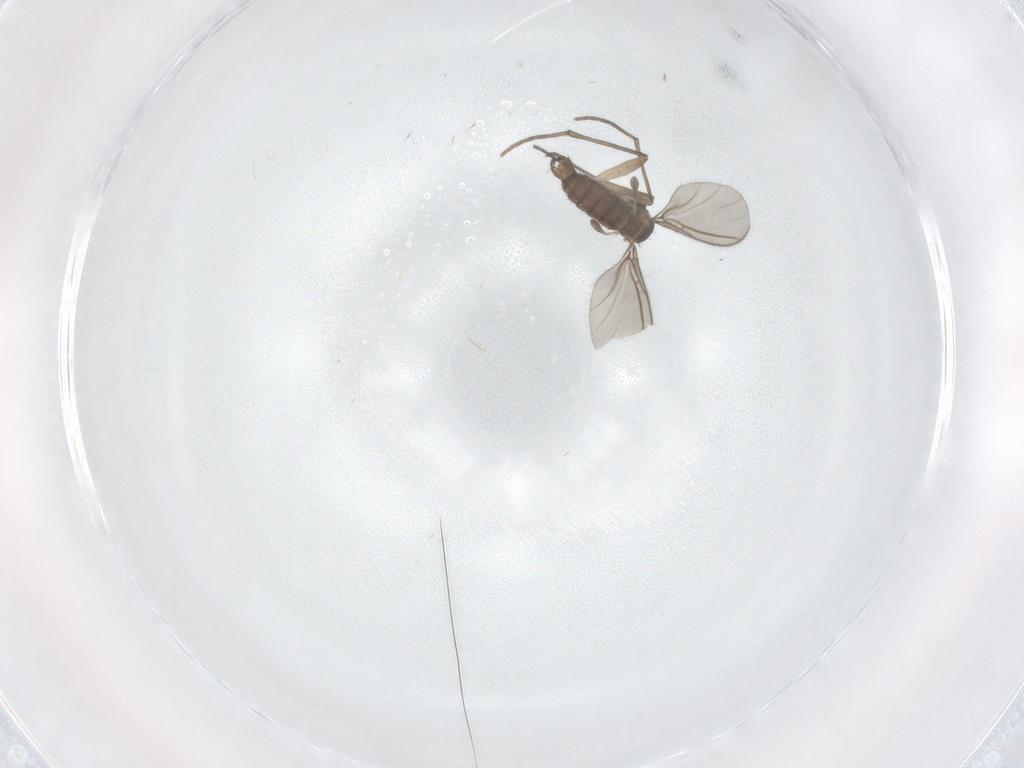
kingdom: Animalia
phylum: Arthropoda
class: Insecta
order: Diptera
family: Sciaridae
